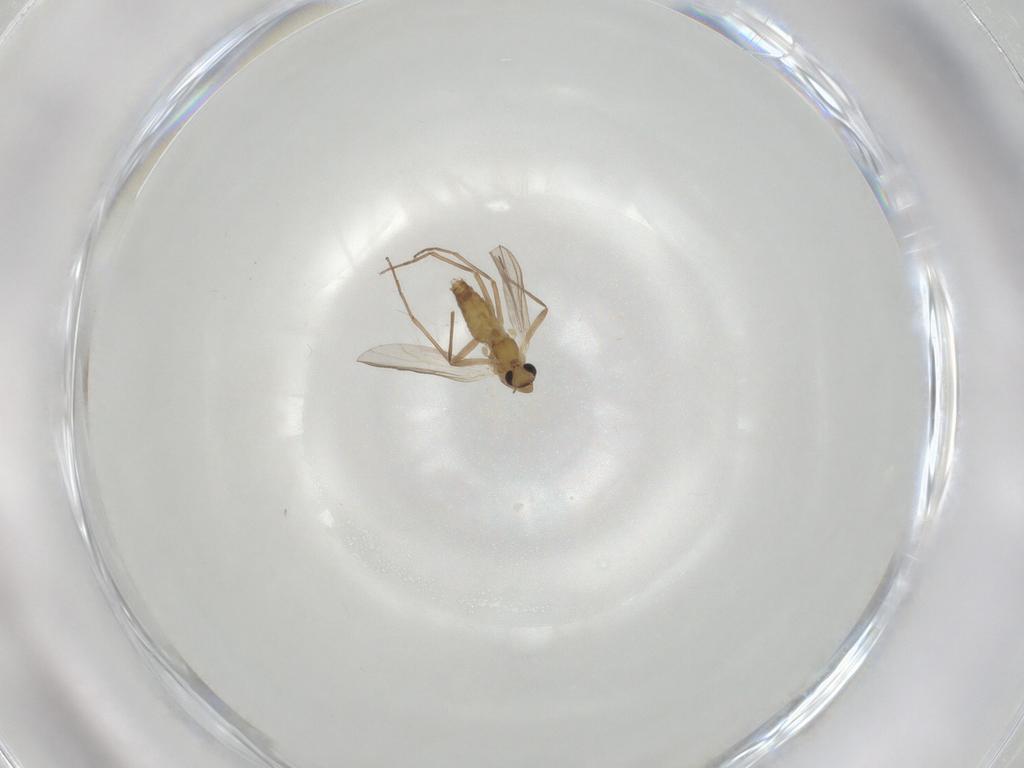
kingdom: Animalia
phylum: Arthropoda
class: Insecta
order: Diptera
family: Chironomidae
